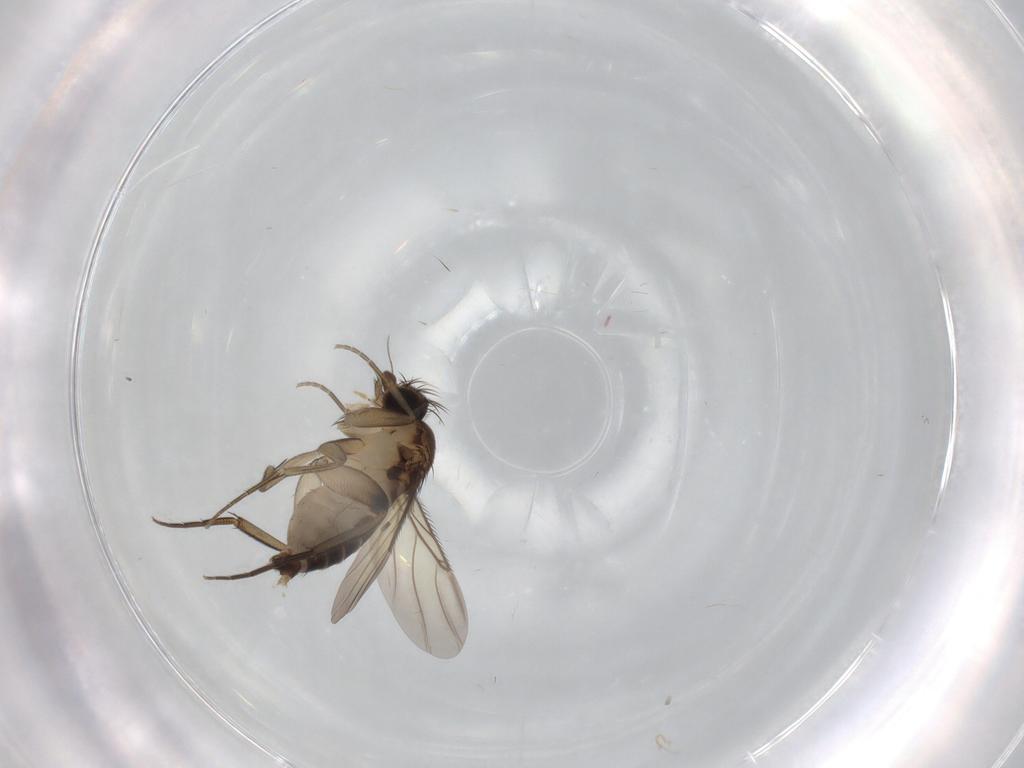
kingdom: Animalia
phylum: Arthropoda
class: Insecta
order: Diptera
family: Phoridae
